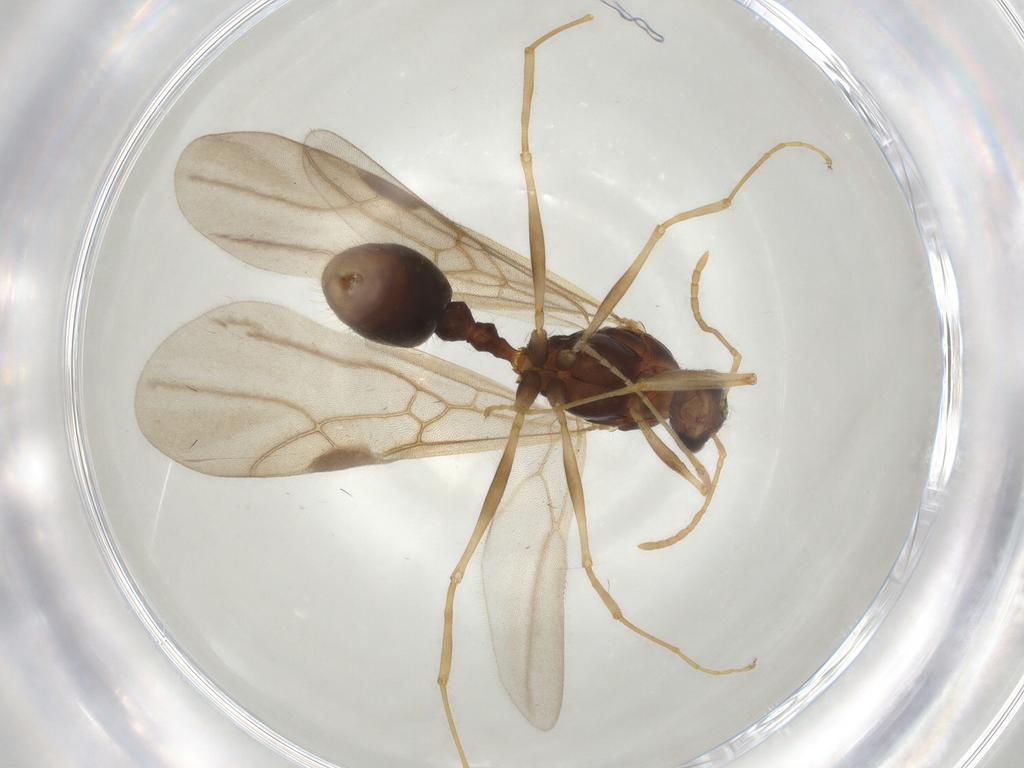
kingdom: Animalia
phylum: Arthropoda
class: Insecta
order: Hymenoptera
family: Formicidae
